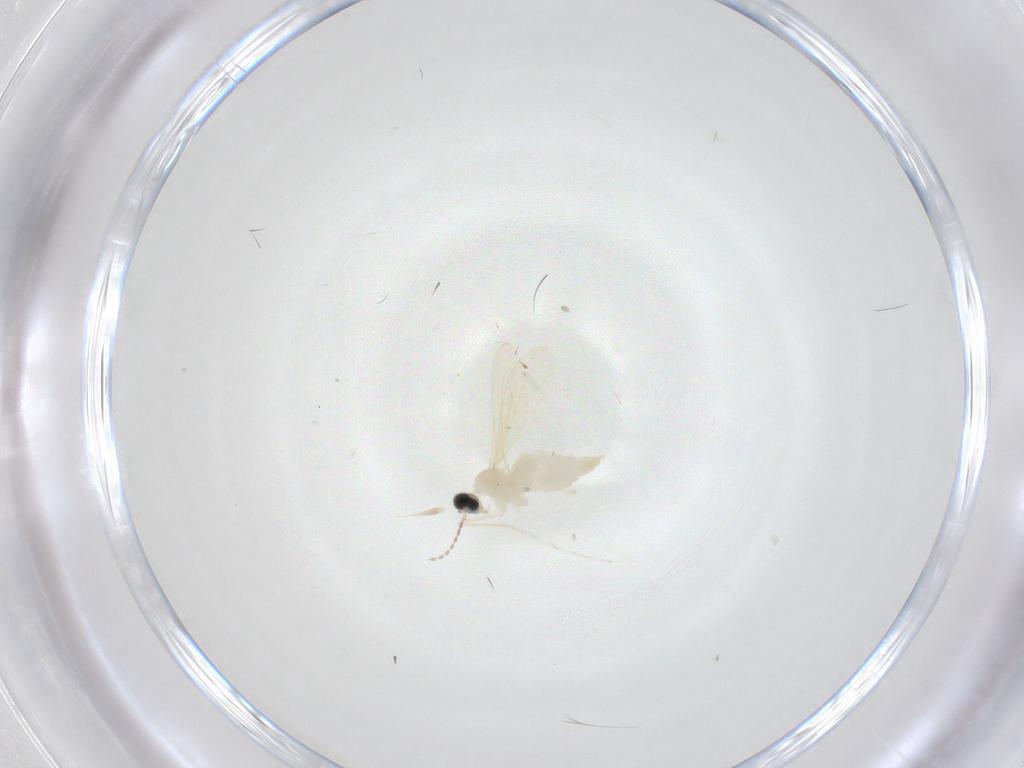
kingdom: Animalia
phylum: Arthropoda
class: Insecta
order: Diptera
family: Cecidomyiidae
